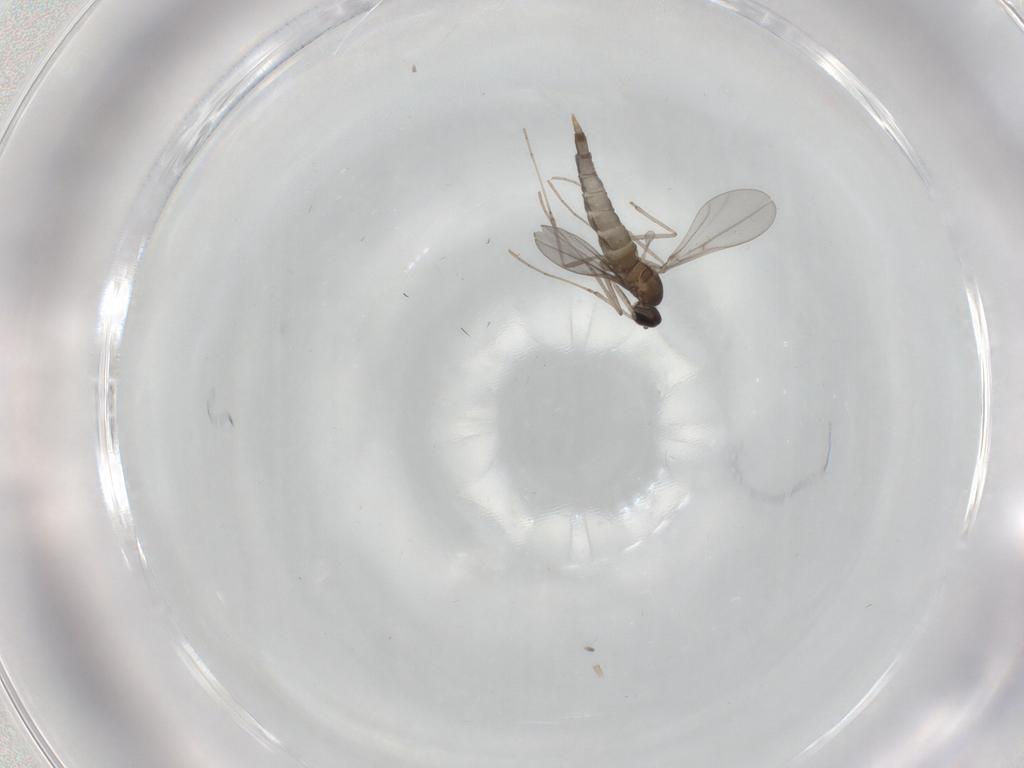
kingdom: Animalia
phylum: Arthropoda
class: Insecta
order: Diptera
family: Cecidomyiidae
